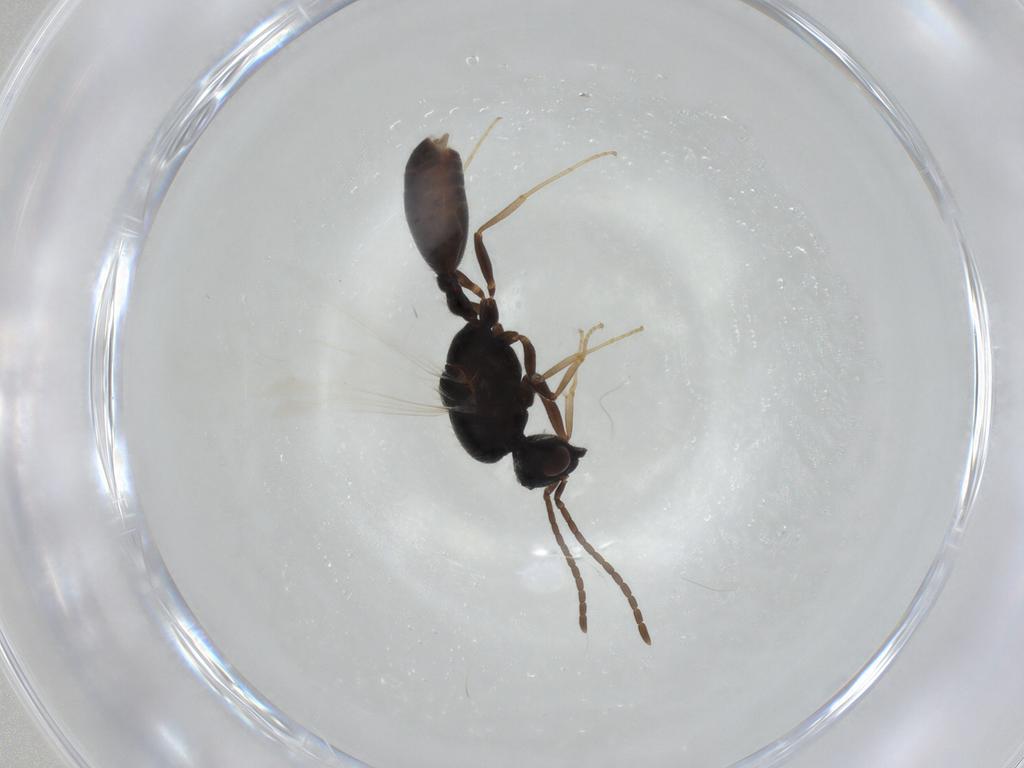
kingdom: Animalia
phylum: Arthropoda
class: Insecta
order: Hymenoptera
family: Formicidae
